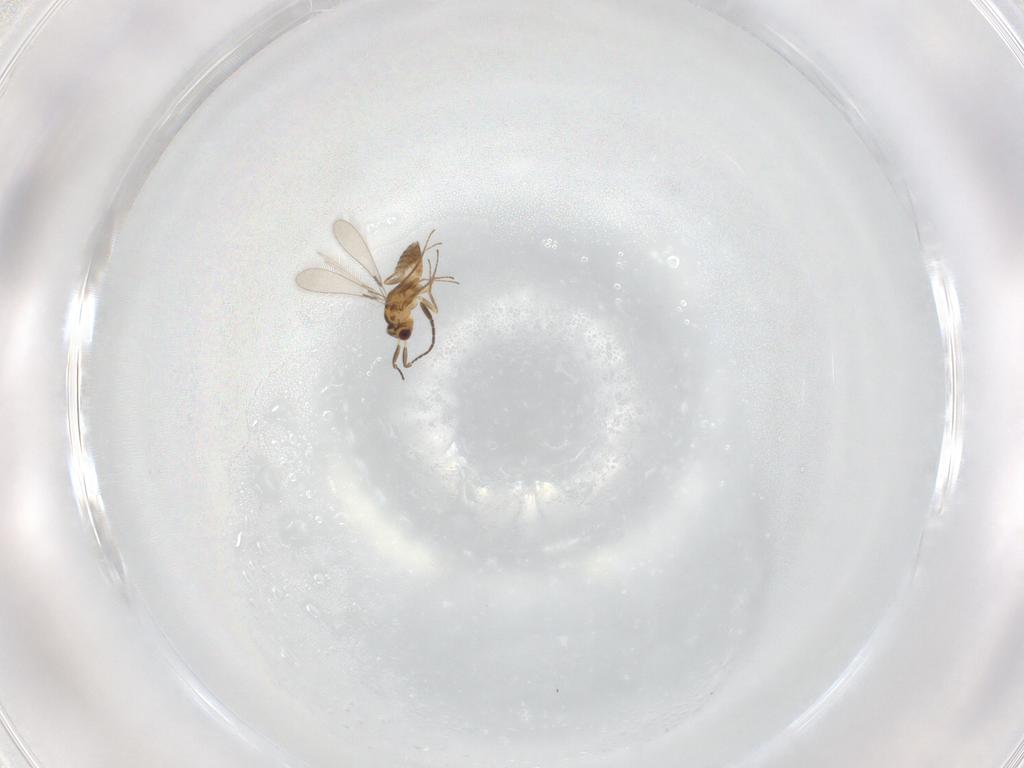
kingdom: Animalia
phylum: Arthropoda
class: Insecta
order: Hymenoptera
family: Mymaridae
